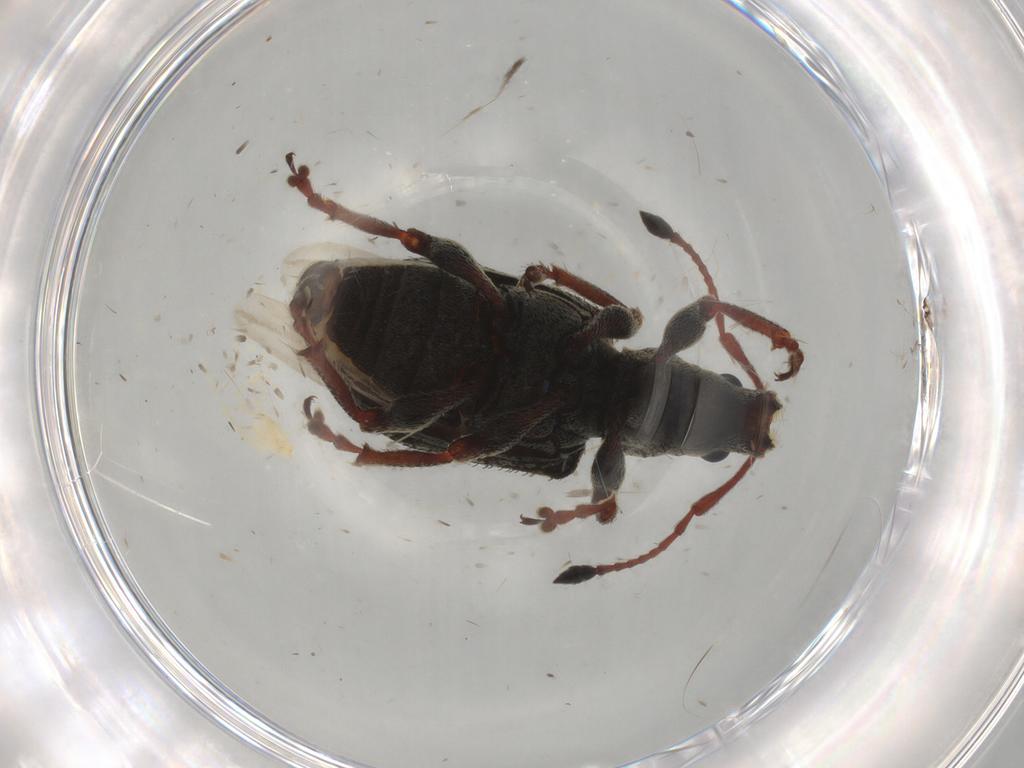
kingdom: Animalia
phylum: Arthropoda
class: Insecta
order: Coleoptera
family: Curculionidae
